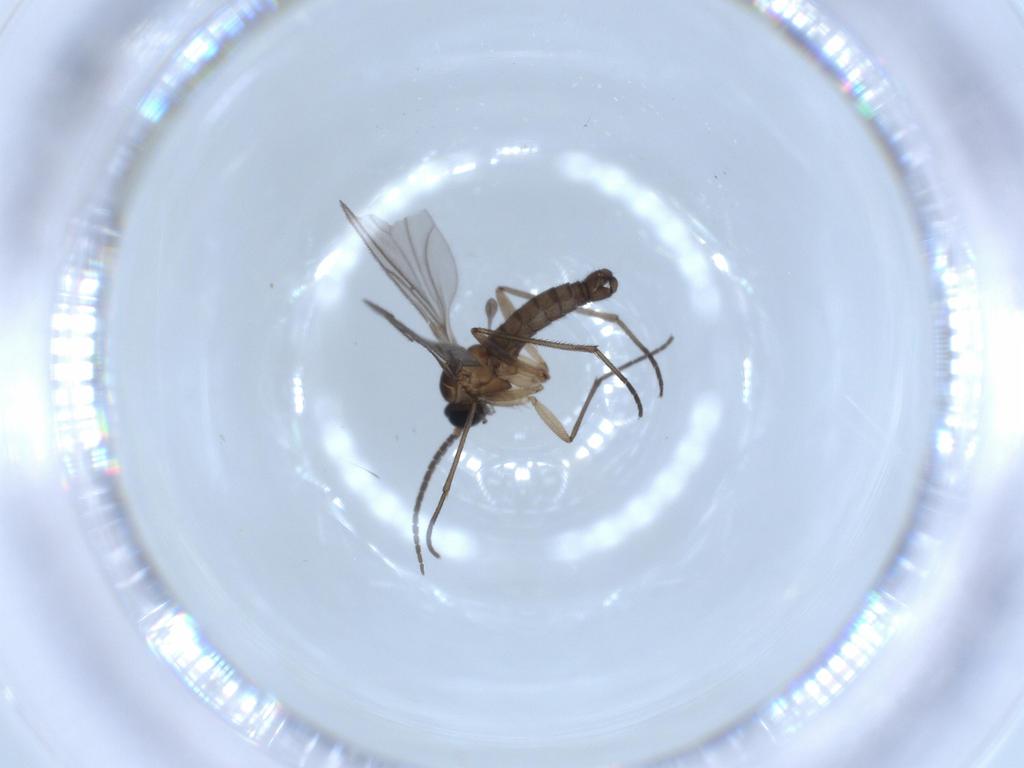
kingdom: Animalia
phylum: Arthropoda
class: Insecta
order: Diptera
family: Sciaridae
